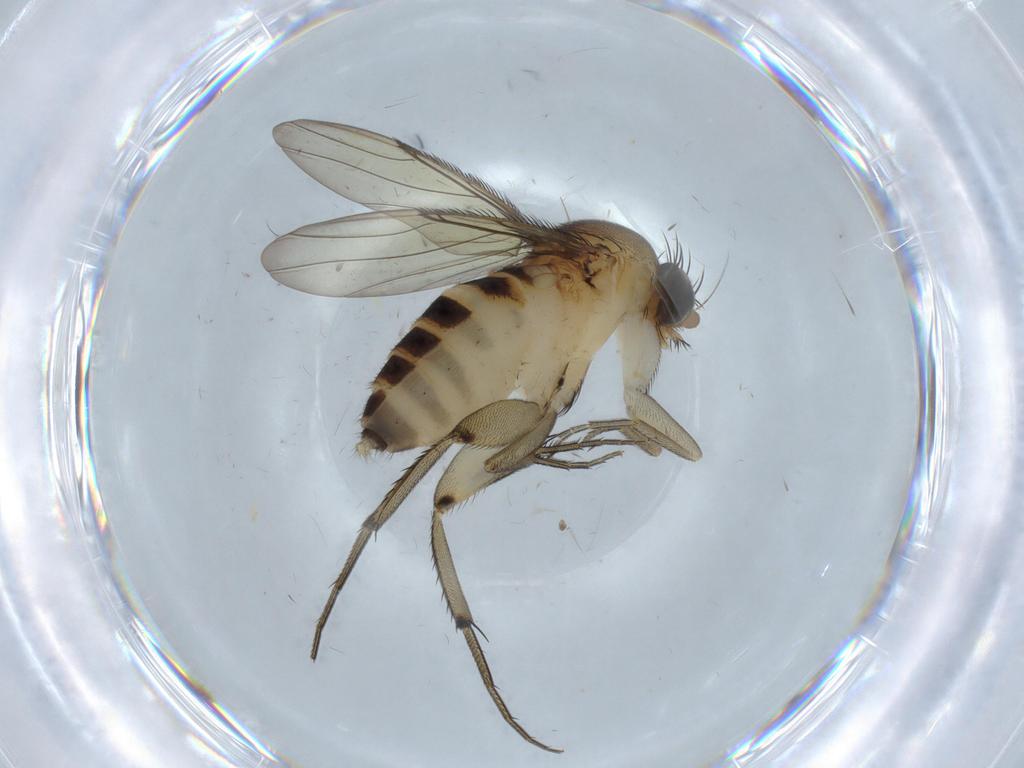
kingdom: Animalia
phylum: Arthropoda
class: Insecta
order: Diptera
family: Phoridae
